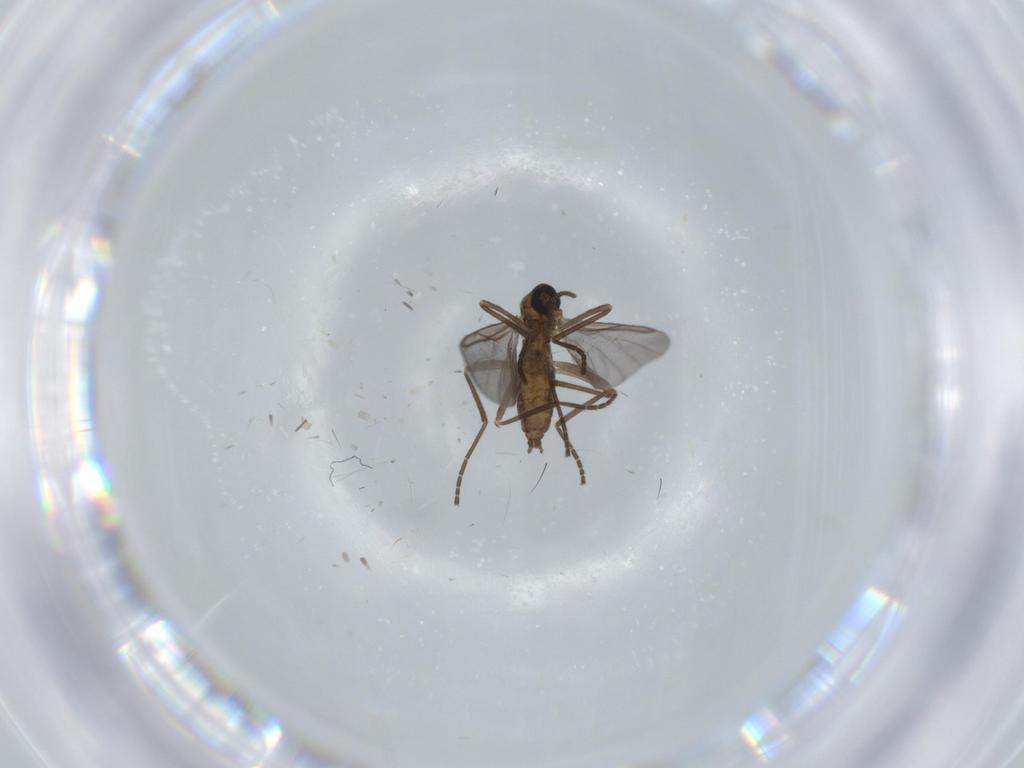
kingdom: Animalia
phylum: Arthropoda
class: Insecta
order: Diptera
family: Cecidomyiidae
